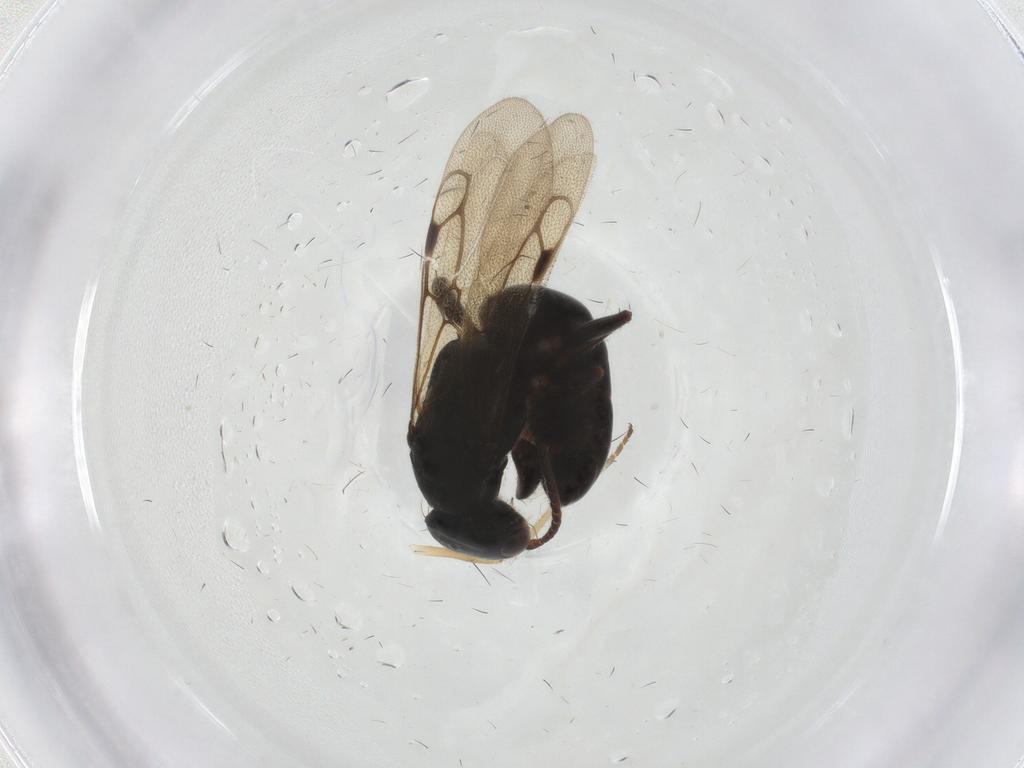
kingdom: Animalia
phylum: Arthropoda
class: Insecta
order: Hymenoptera
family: Bethylidae
